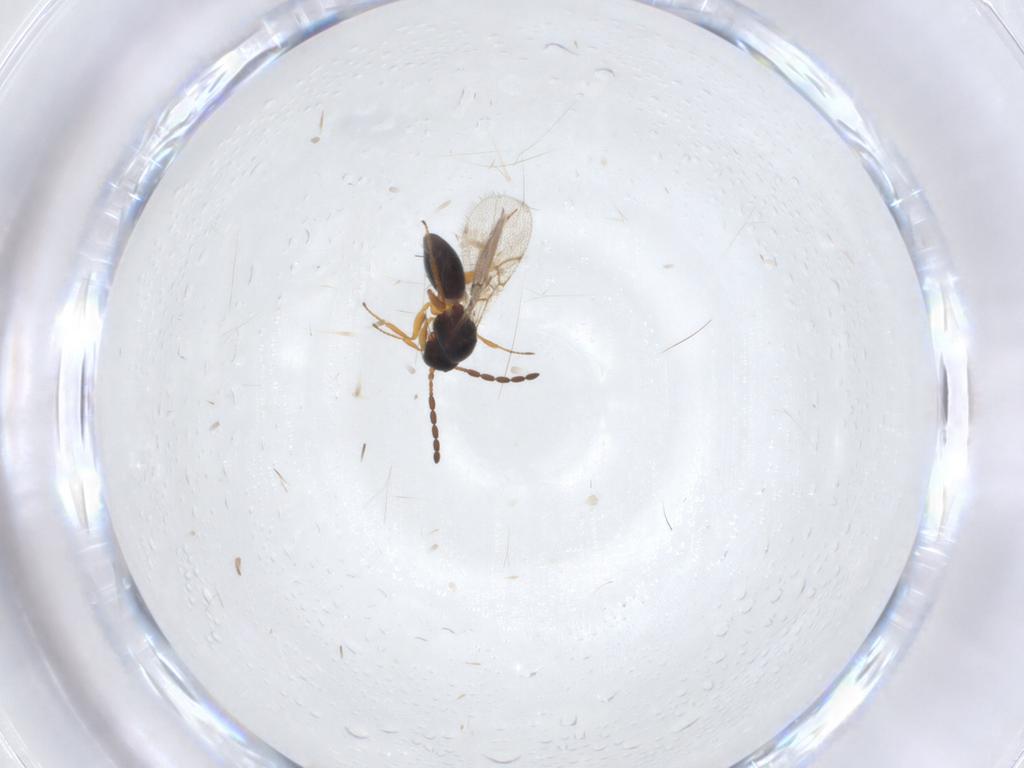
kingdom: Animalia
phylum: Arthropoda
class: Insecta
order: Hymenoptera
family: Figitidae
